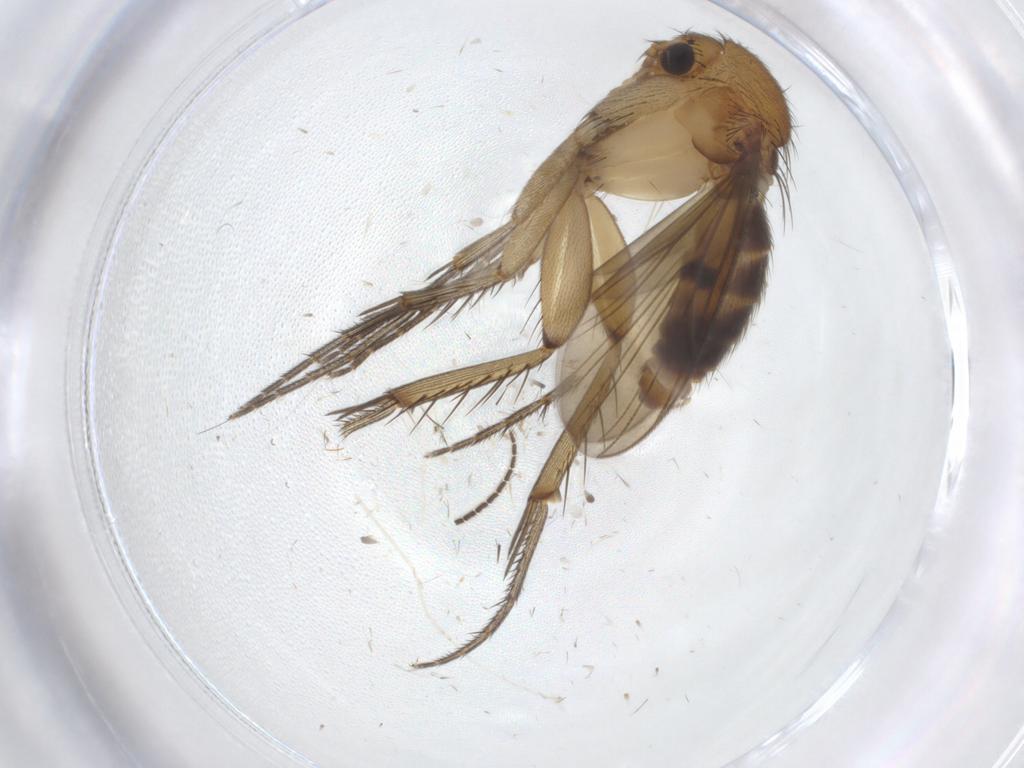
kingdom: Animalia
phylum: Arthropoda
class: Insecta
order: Diptera
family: Mycetophilidae
